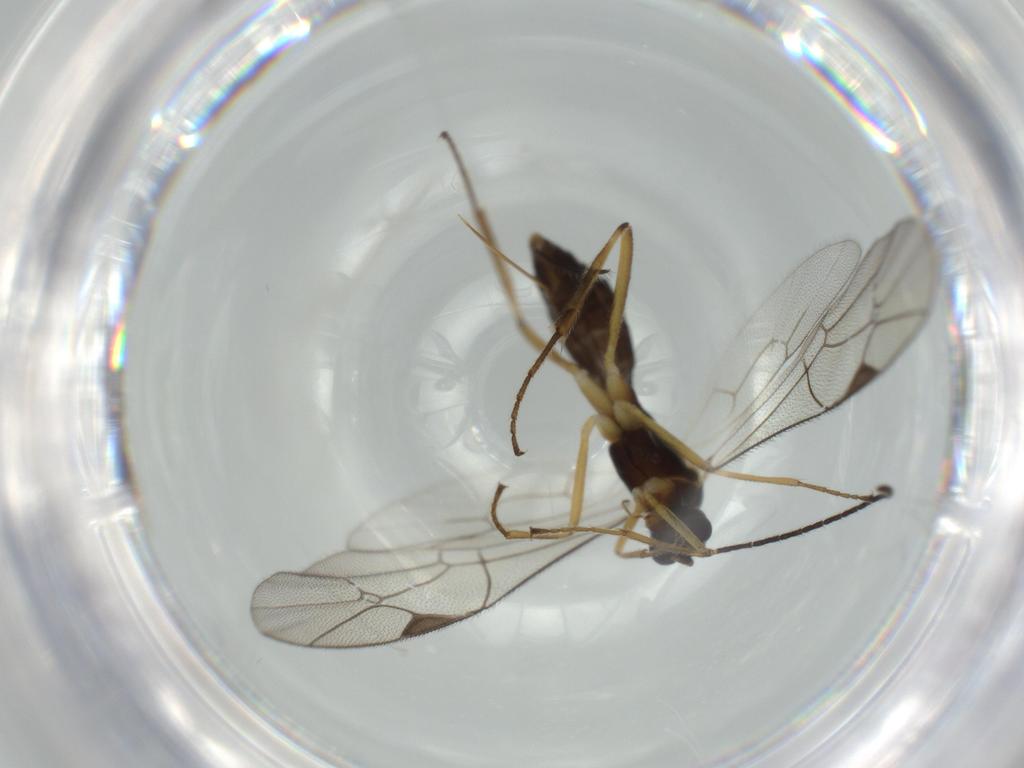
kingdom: Animalia
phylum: Arthropoda
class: Insecta
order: Hymenoptera
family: Ichneumonidae
